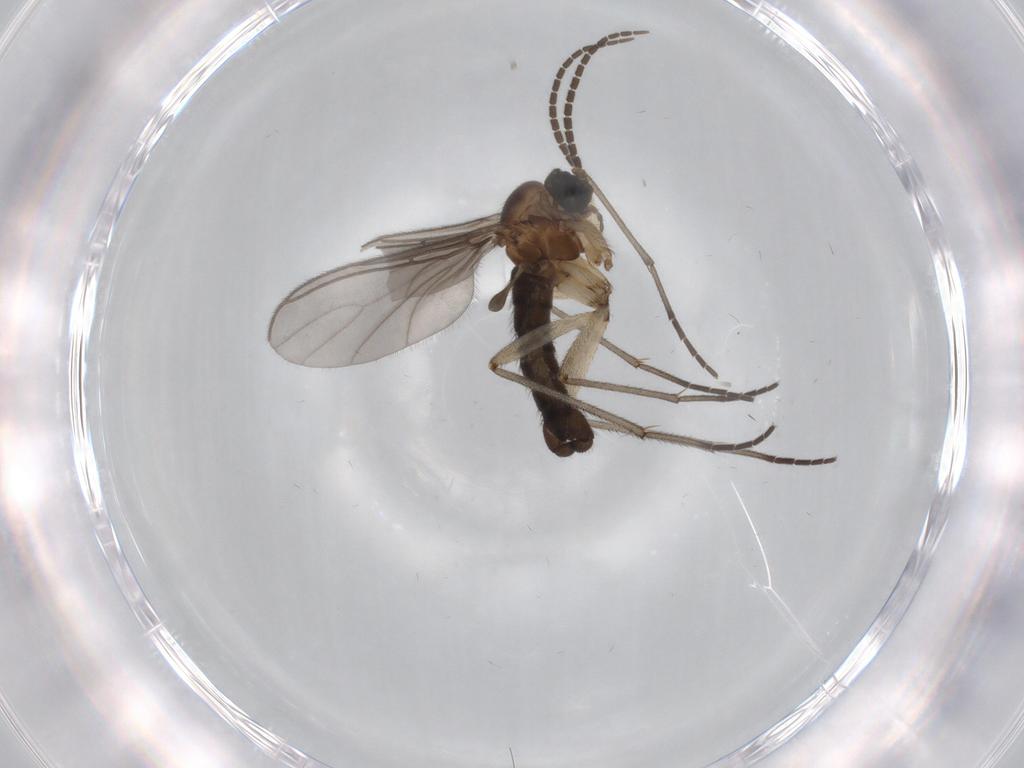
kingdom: Animalia
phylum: Arthropoda
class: Insecta
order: Diptera
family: Sciaridae
